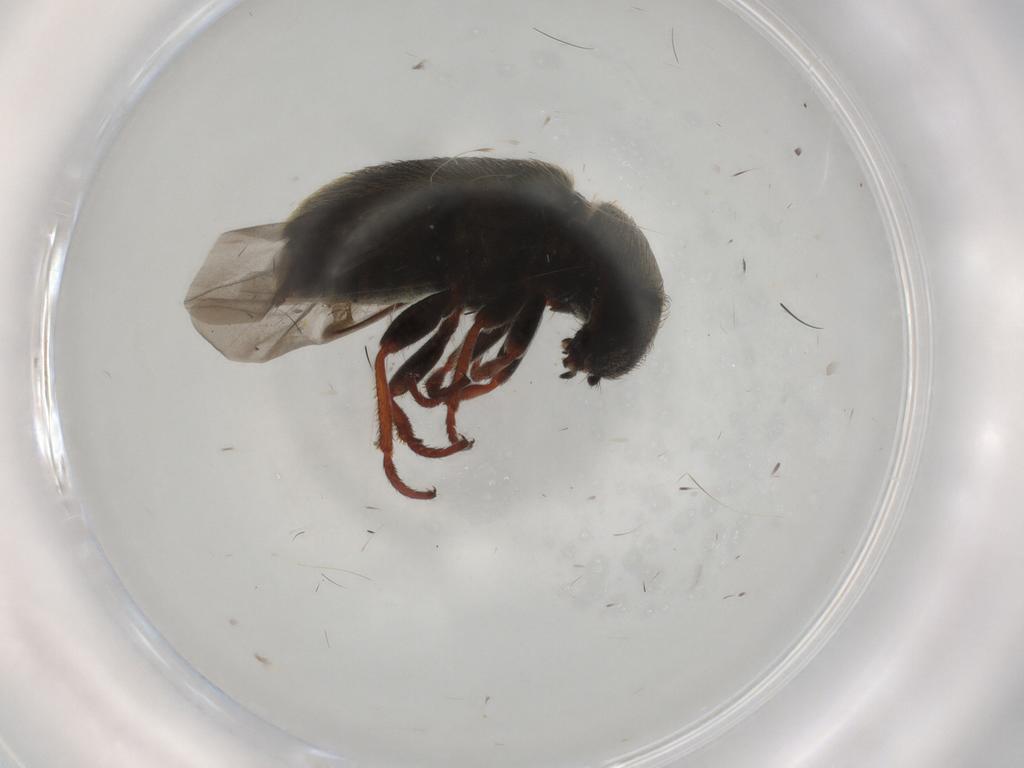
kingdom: Animalia
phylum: Arthropoda
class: Insecta
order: Coleoptera
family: Melyridae
